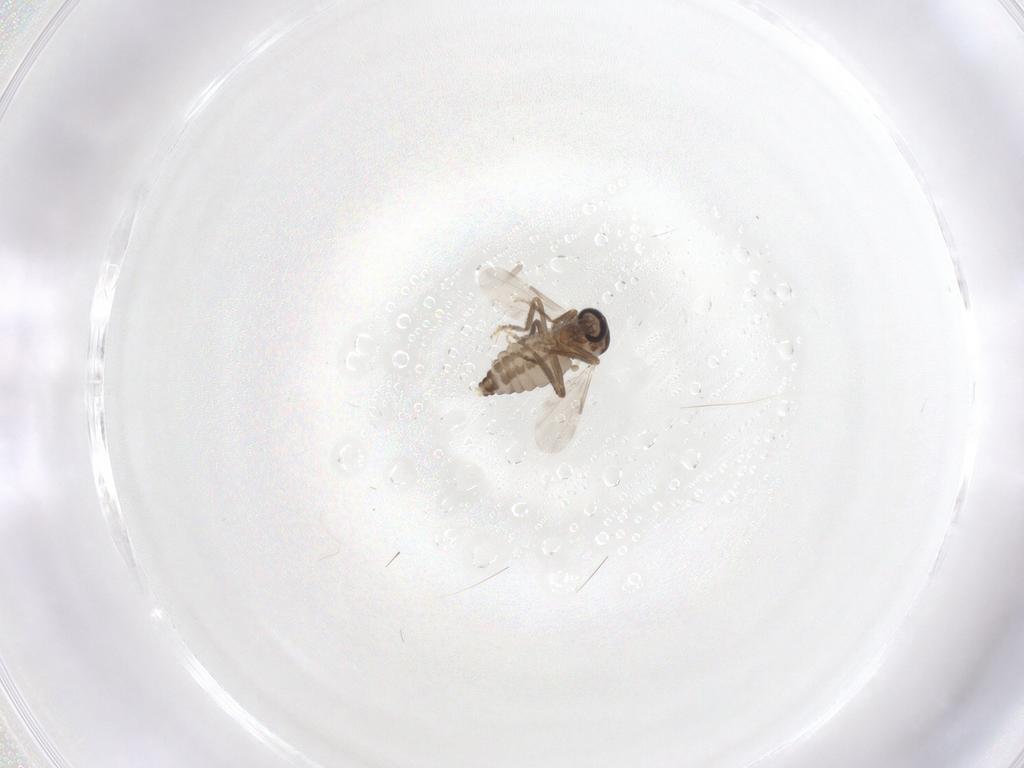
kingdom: Animalia
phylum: Arthropoda
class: Insecta
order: Diptera
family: Ceratopogonidae
